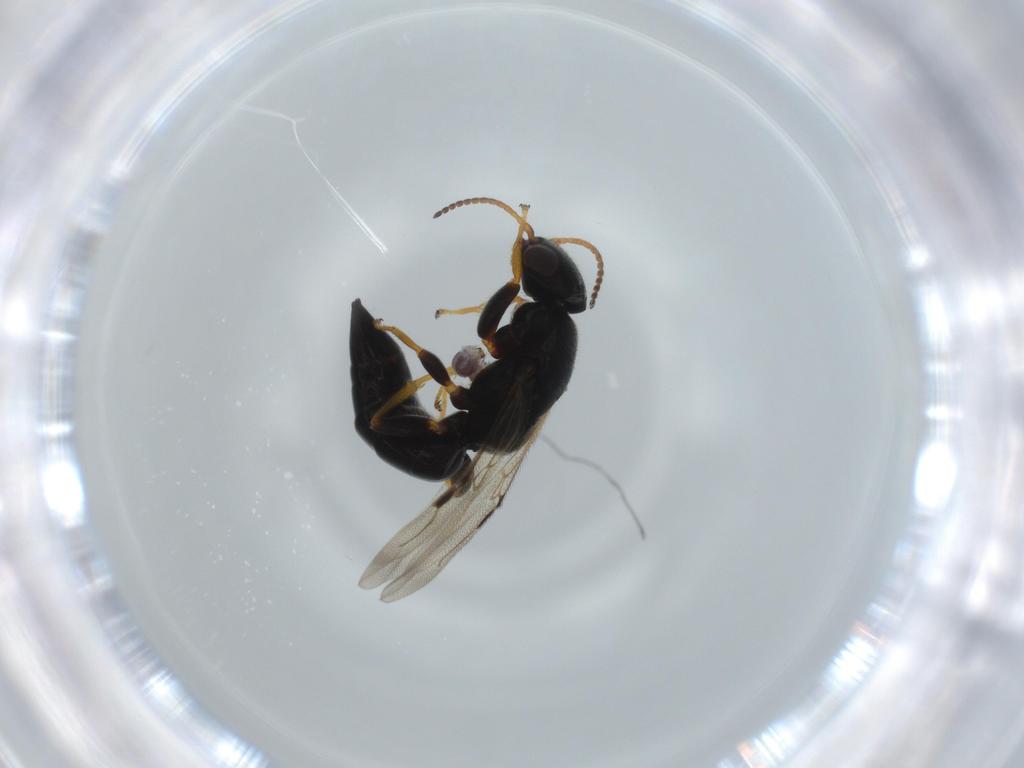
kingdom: Animalia
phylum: Arthropoda
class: Insecta
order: Hymenoptera
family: Bethylidae
